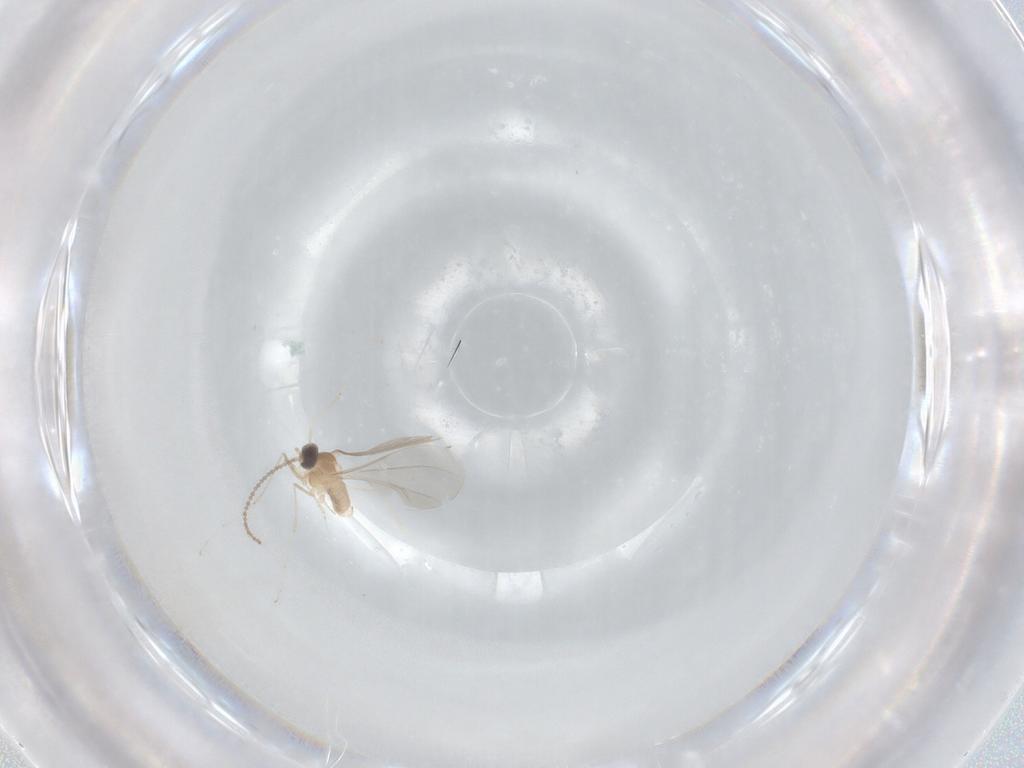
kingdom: Animalia
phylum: Arthropoda
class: Insecta
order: Diptera
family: Cecidomyiidae
